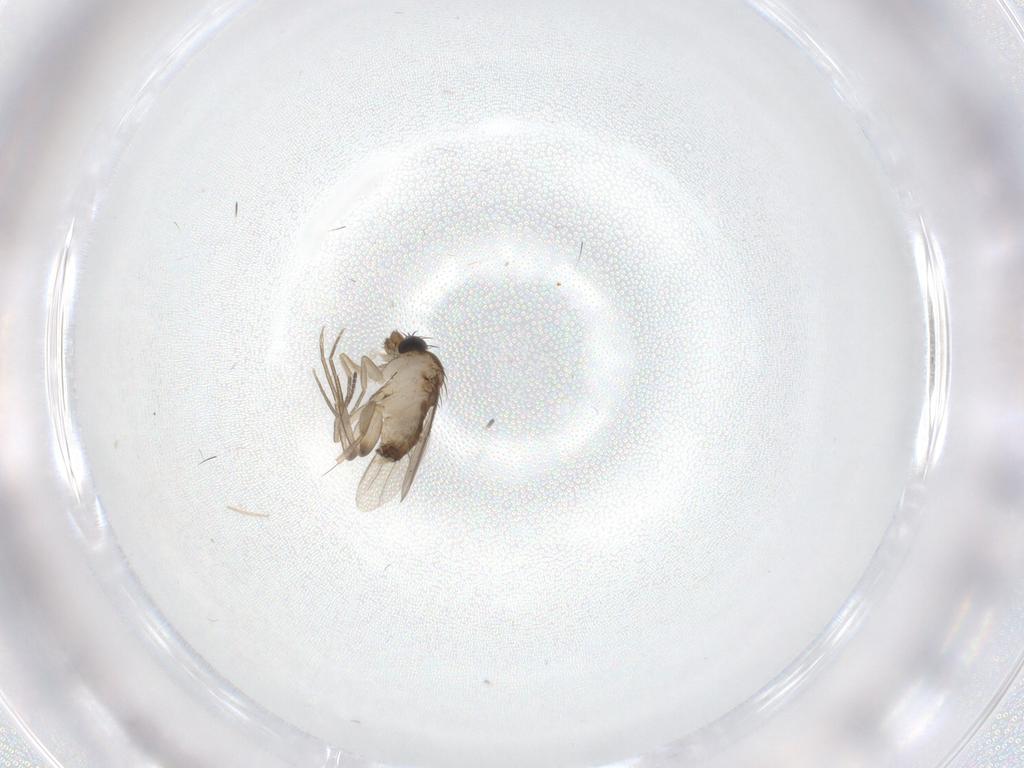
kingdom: Animalia
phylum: Arthropoda
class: Insecta
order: Diptera
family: Phoridae
